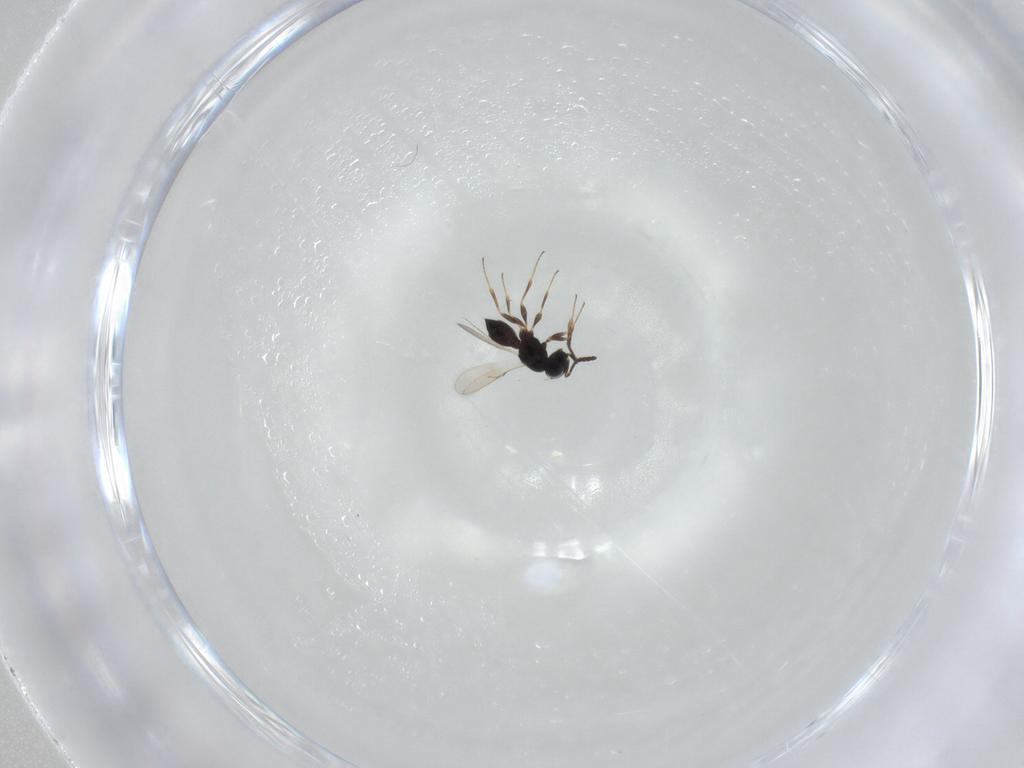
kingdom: Animalia
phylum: Arthropoda
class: Insecta
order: Hymenoptera
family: Scelionidae
